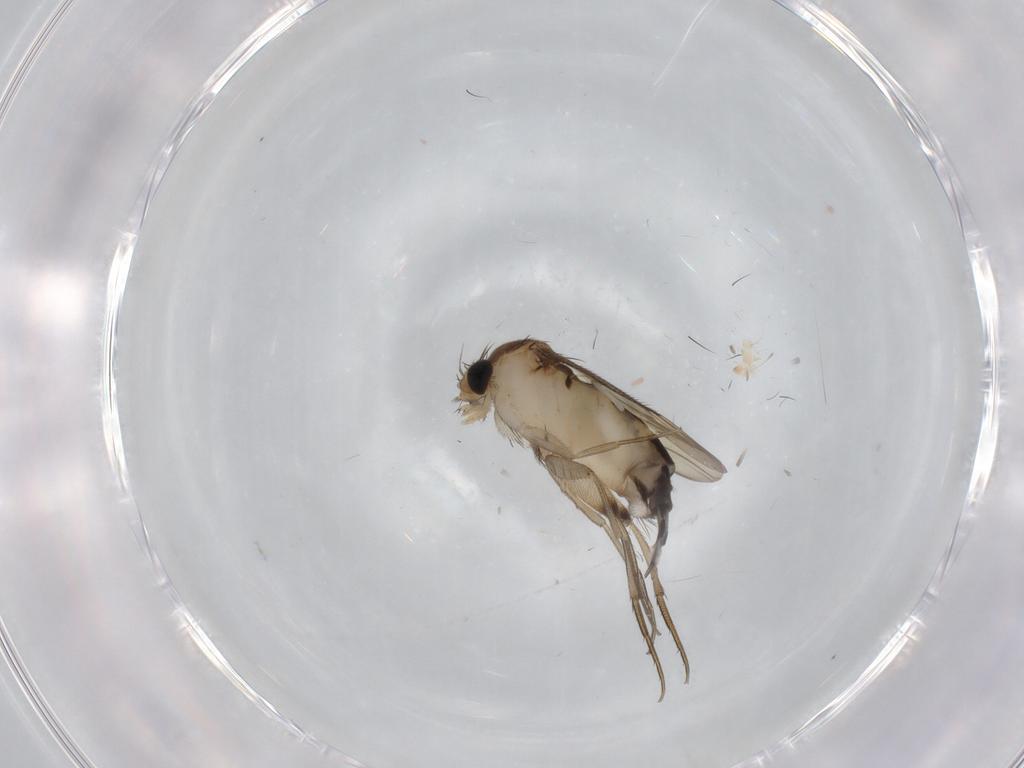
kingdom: Animalia
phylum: Arthropoda
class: Insecta
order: Diptera
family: Phoridae
